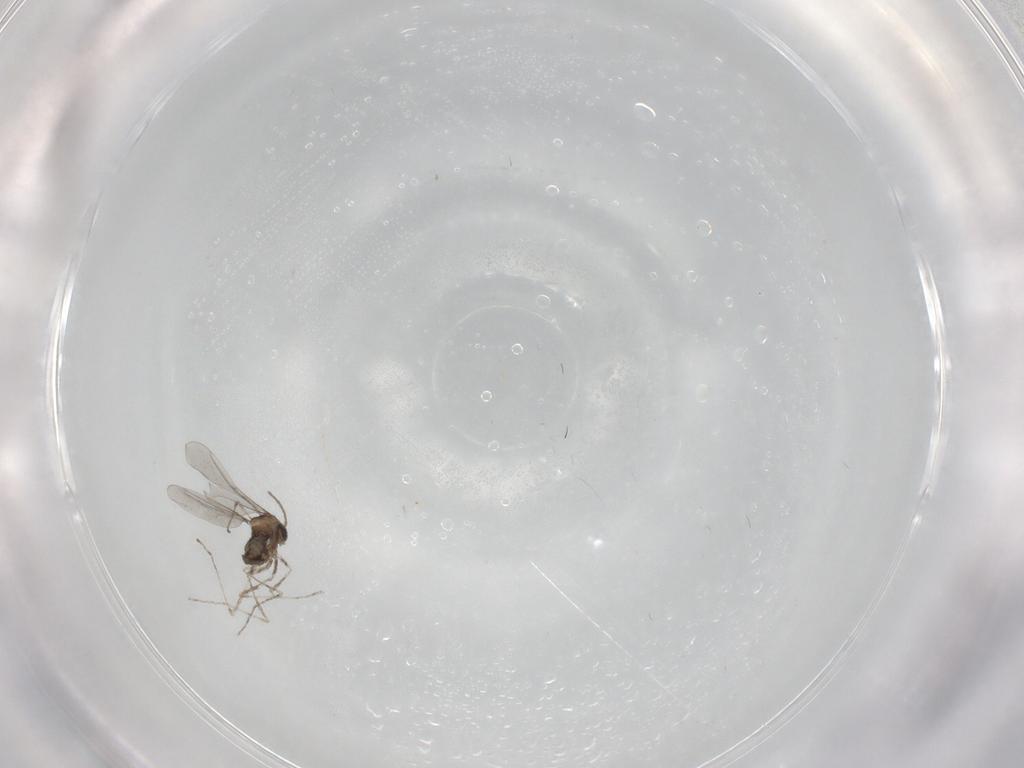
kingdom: Animalia
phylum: Arthropoda
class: Insecta
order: Diptera
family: Cecidomyiidae
